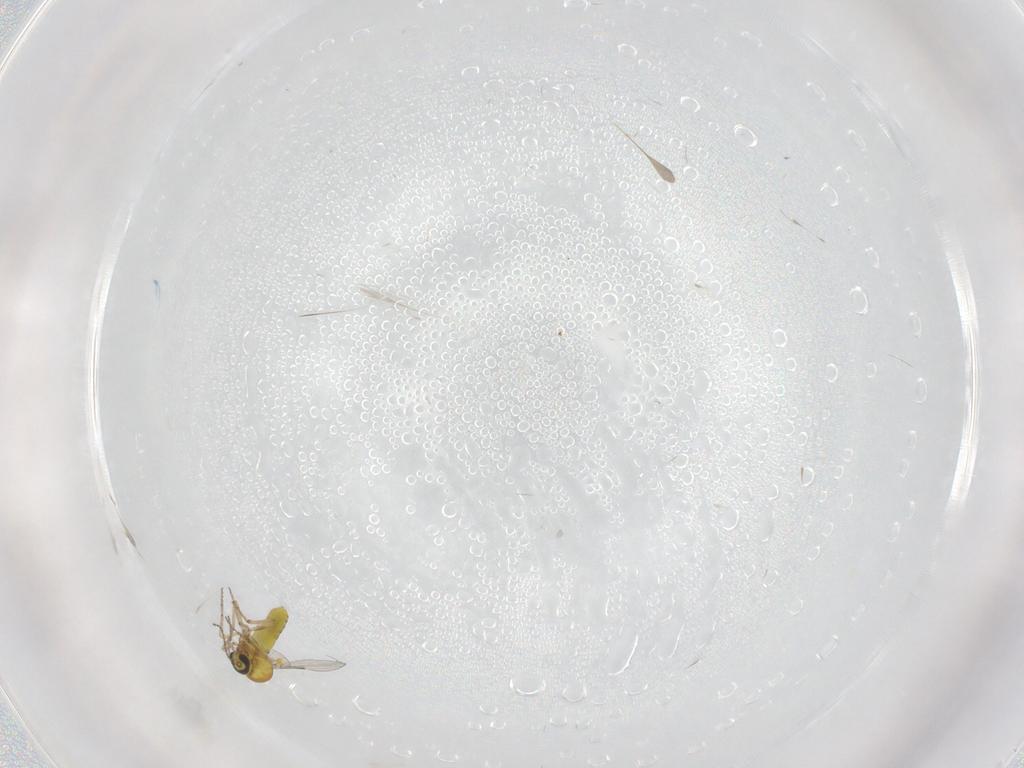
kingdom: Animalia
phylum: Arthropoda
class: Insecta
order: Diptera
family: Ceratopogonidae
